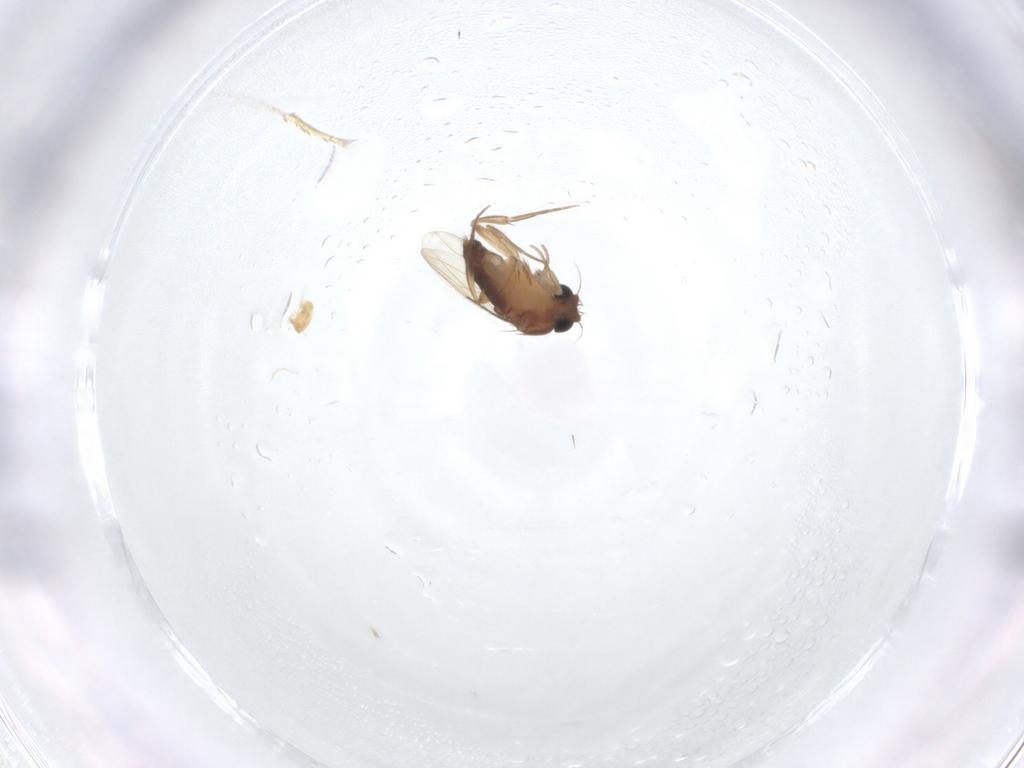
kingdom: Animalia
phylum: Arthropoda
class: Insecta
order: Diptera
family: Phoridae
